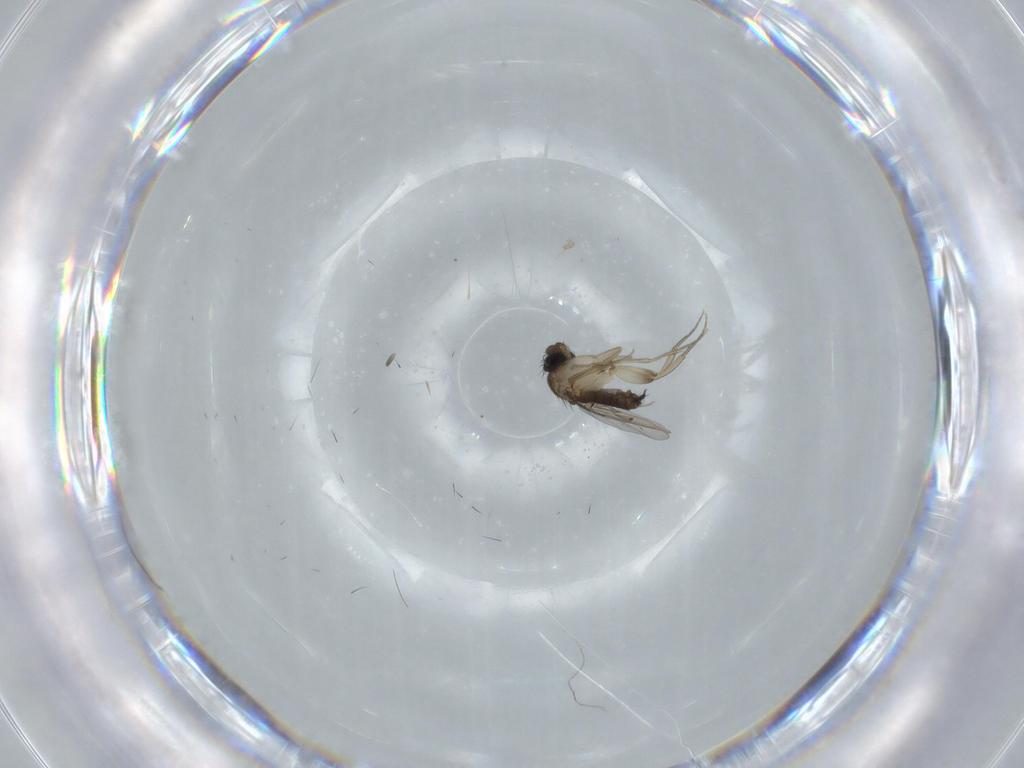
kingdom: Animalia
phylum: Arthropoda
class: Insecta
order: Diptera
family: Phoridae
